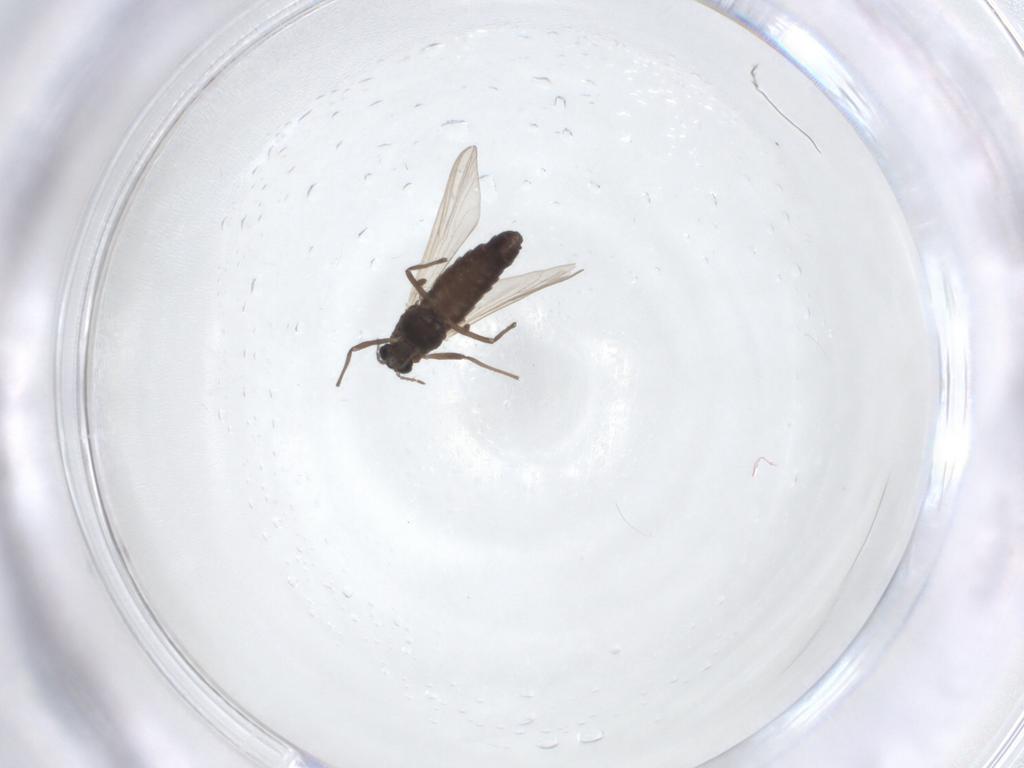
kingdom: Animalia
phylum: Arthropoda
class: Insecta
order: Diptera
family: Chironomidae
